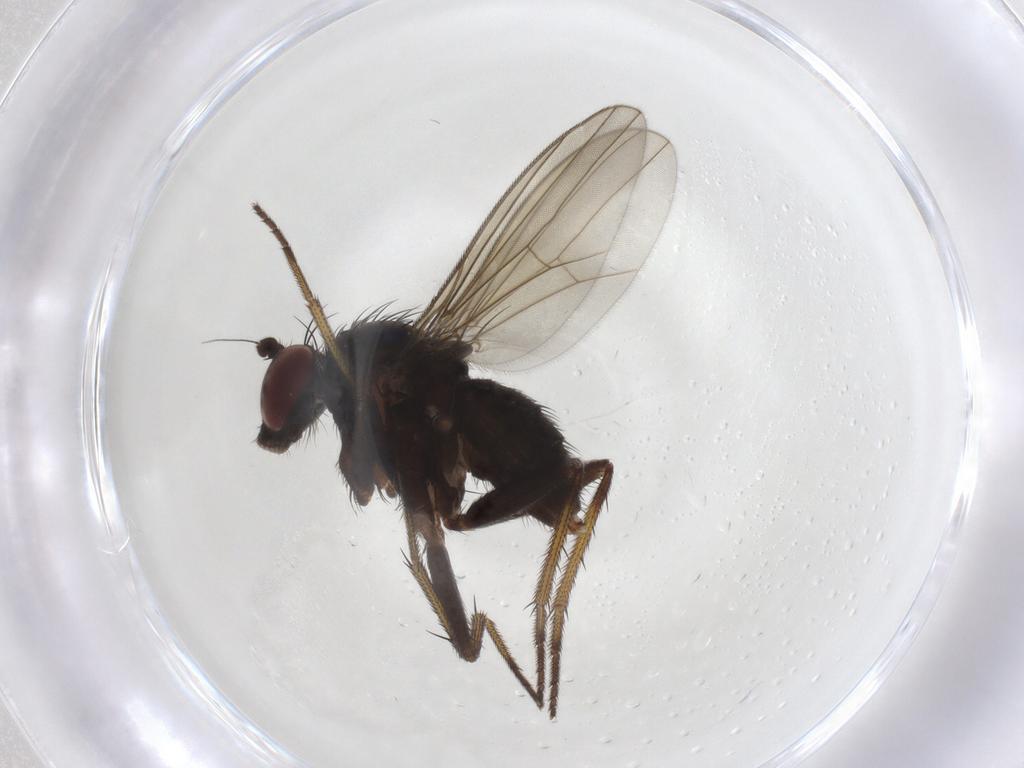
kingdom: Animalia
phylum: Arthropoda
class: Insecta
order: Diptera
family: Dolichopodidae
